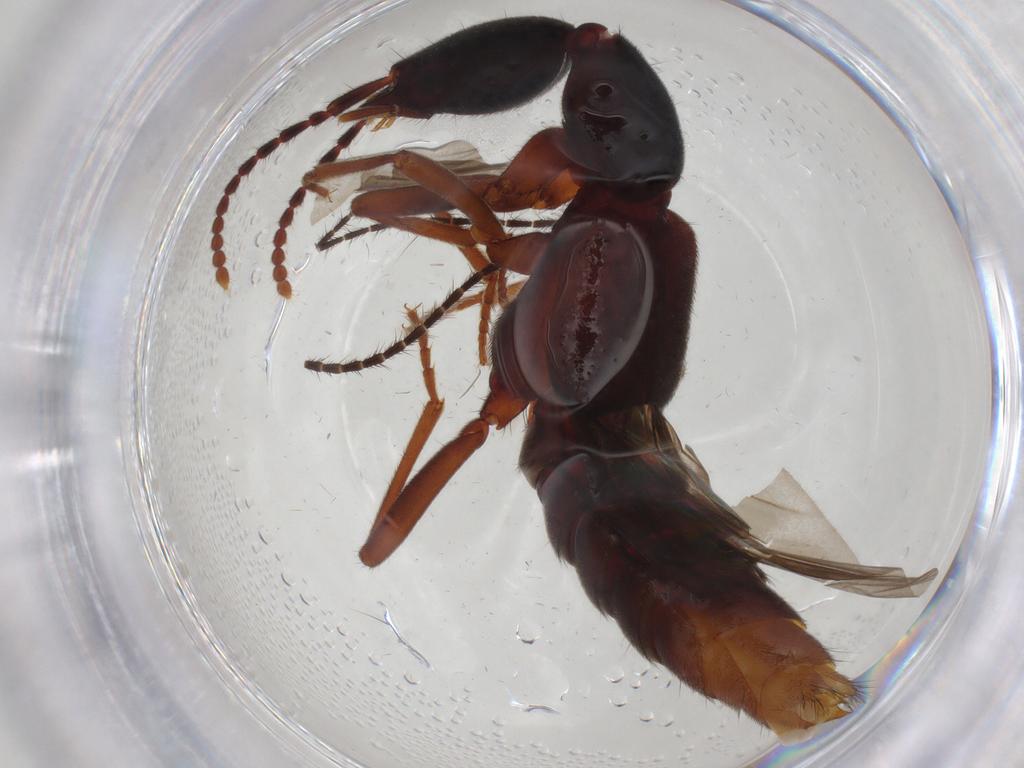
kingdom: Animalia
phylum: Arthropoda
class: Insecta
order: Coleoptera
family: Staphylinidae
